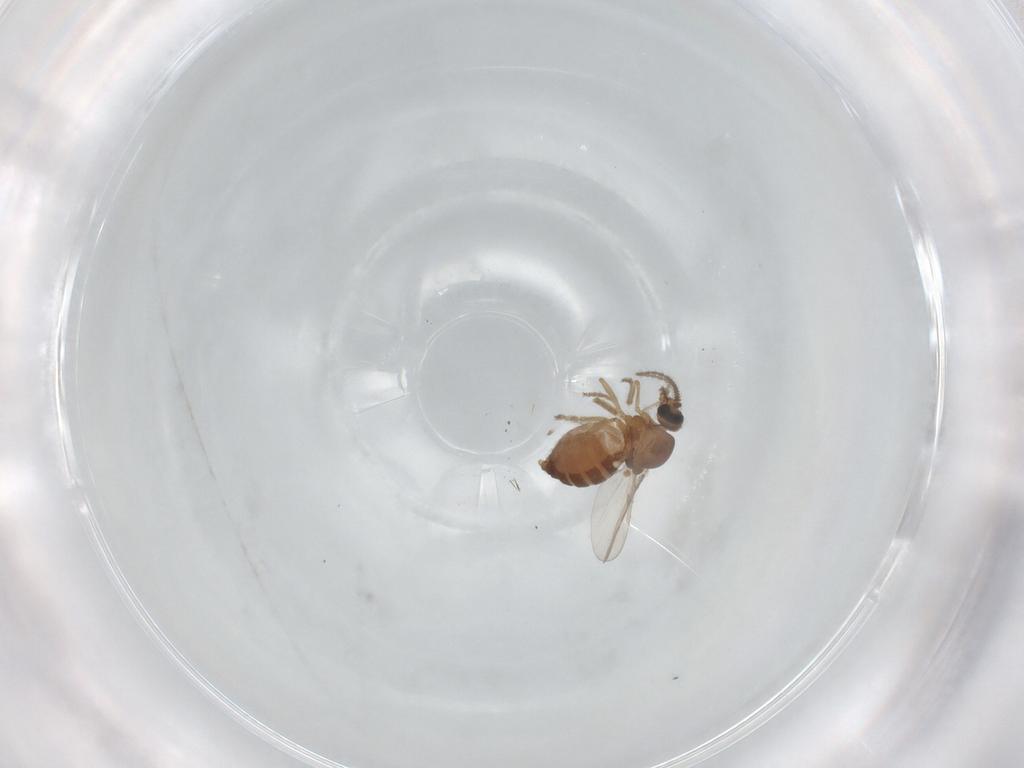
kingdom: Animalia
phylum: Arthropoda
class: Insecta
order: Diptera
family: Ceratopogonidae
